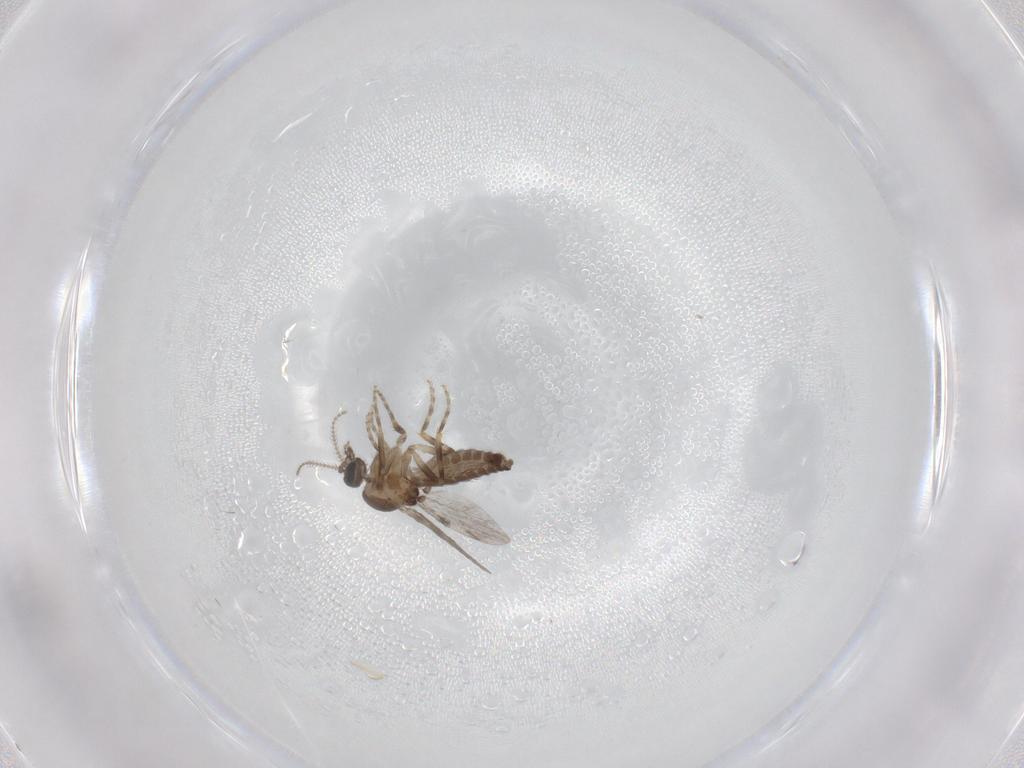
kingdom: Animalia
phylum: Arthropoda
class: Insecta
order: Diptera
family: Ceratopogonidae
